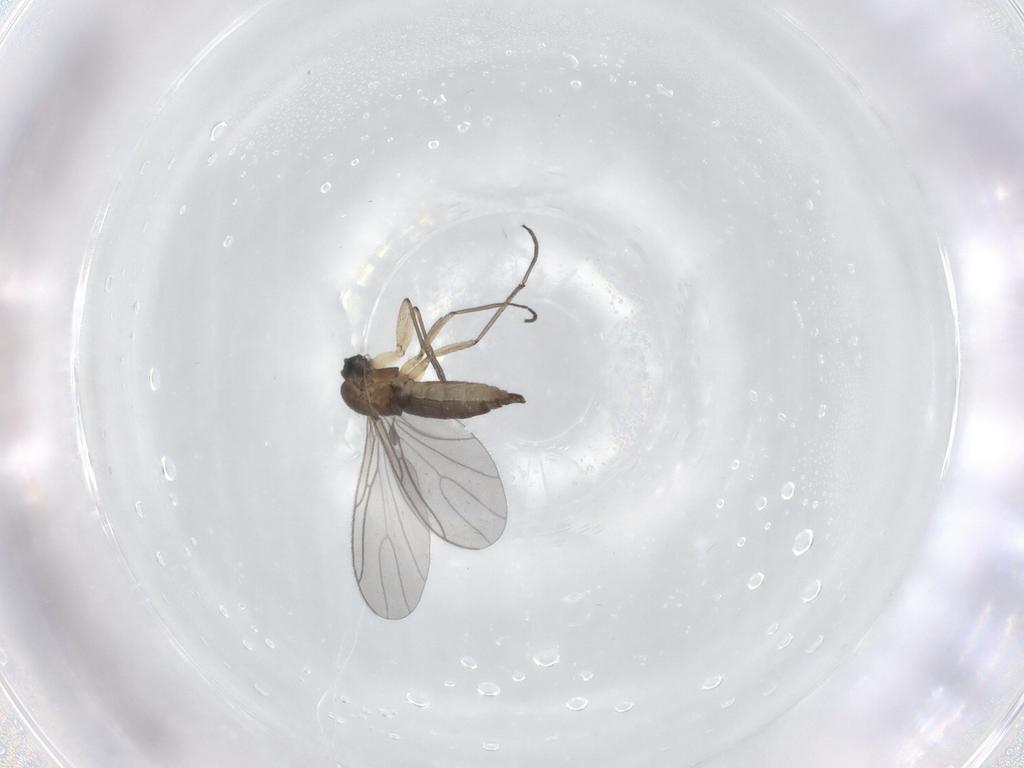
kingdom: Animalia
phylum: Arthropoda
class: Insecta
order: Diptera
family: Sciaridae
